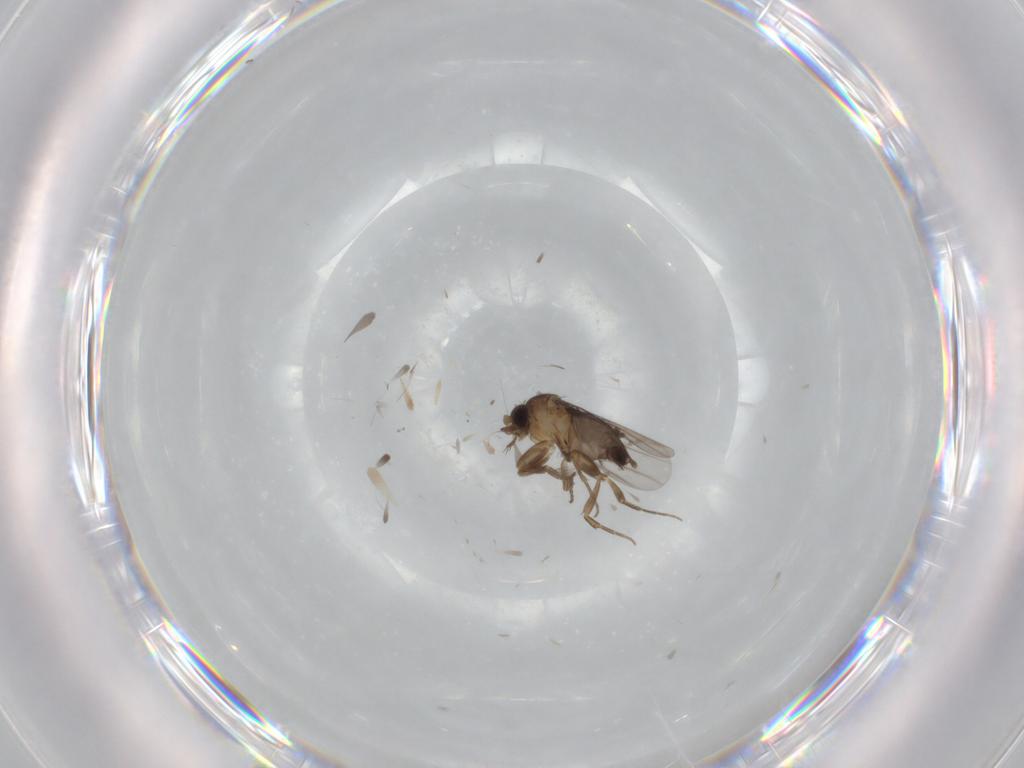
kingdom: Animalia
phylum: Arthropoda
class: Insecta
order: Diptera
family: Phoridae
